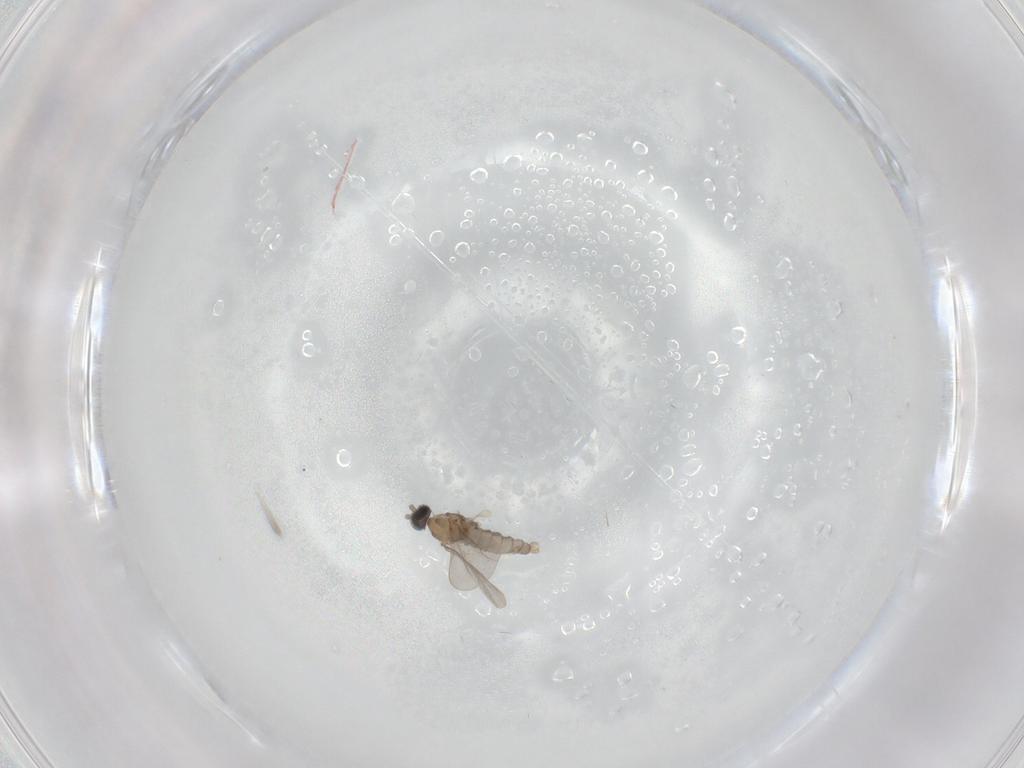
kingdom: Animalia
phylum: Arthropoda
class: Insecta
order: Diptera
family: Cecidomyiidae
